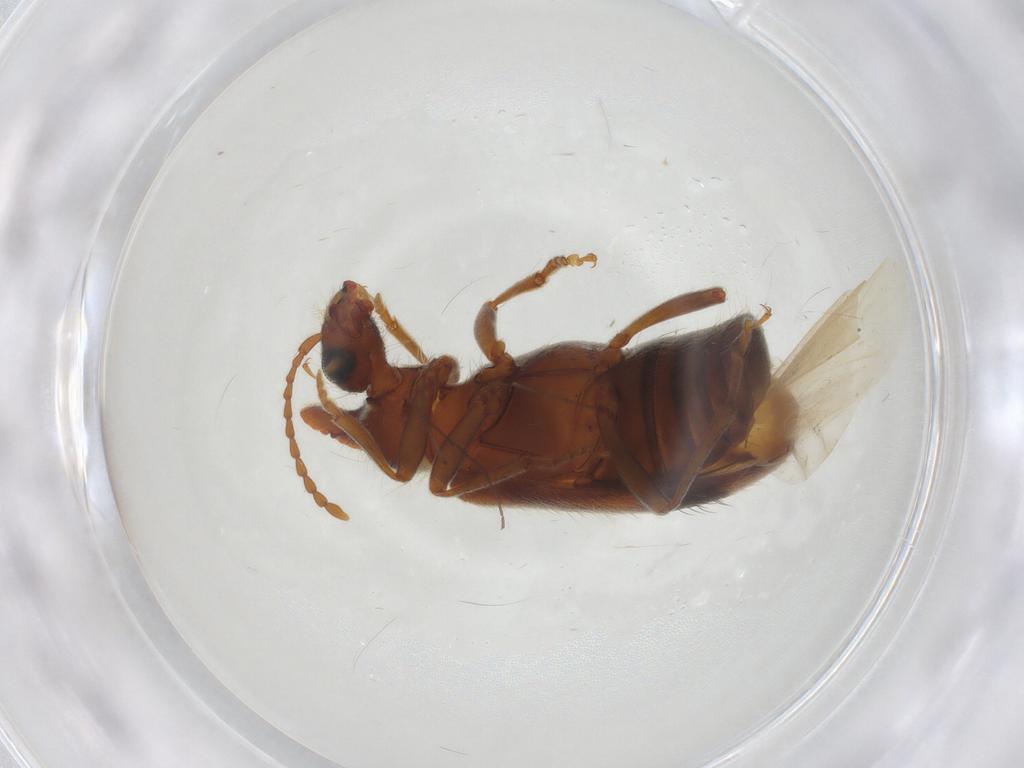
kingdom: Animalia
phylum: Arthropoda
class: Insecta
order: Coleoptera
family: Anthicidae
